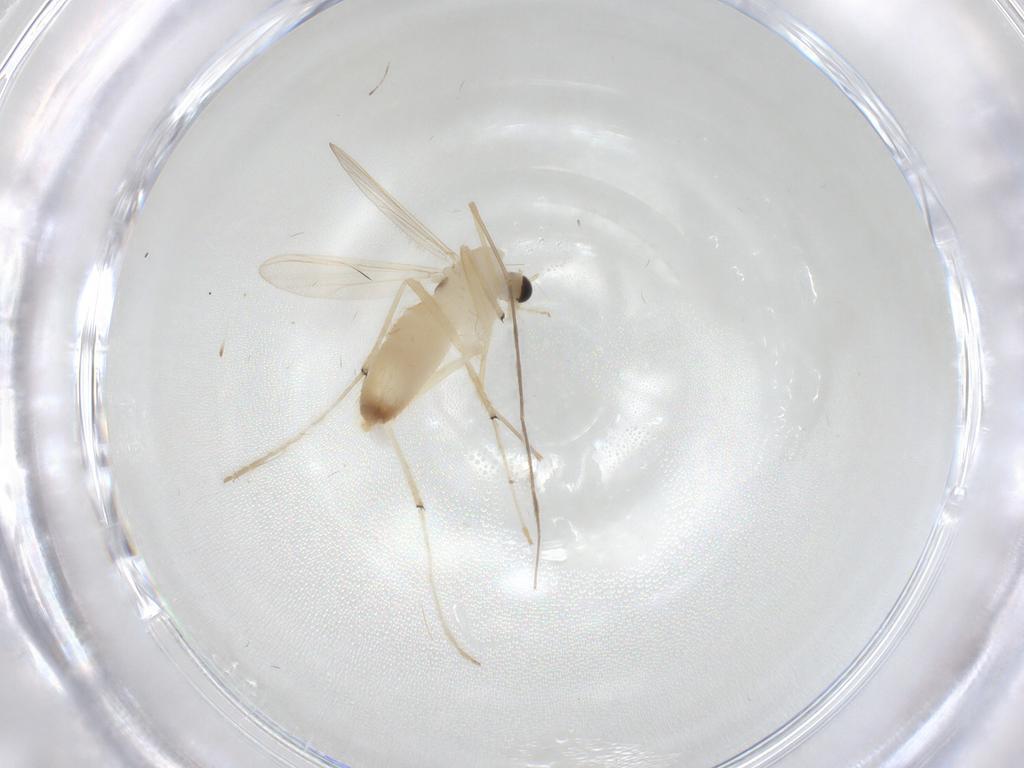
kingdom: Animalia
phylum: Arthropoda
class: Insecta
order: Diptera
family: Chironomidae
